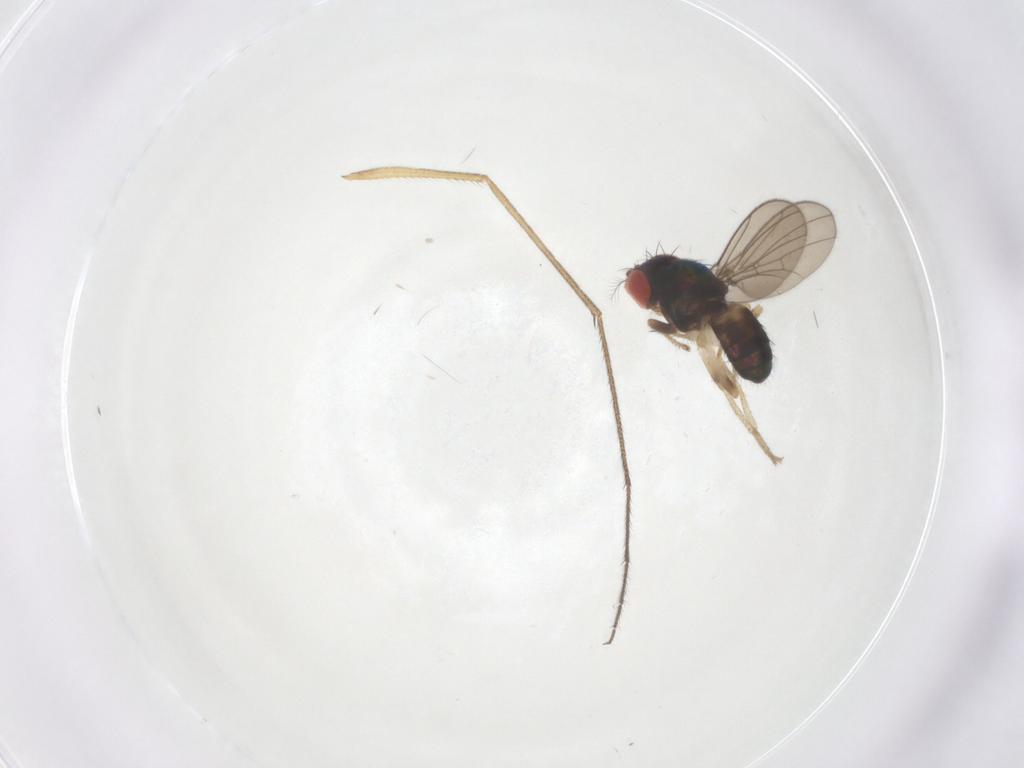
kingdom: Animalia
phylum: Arthropoda
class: Insecta
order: Diptera
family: Drosophilidae
